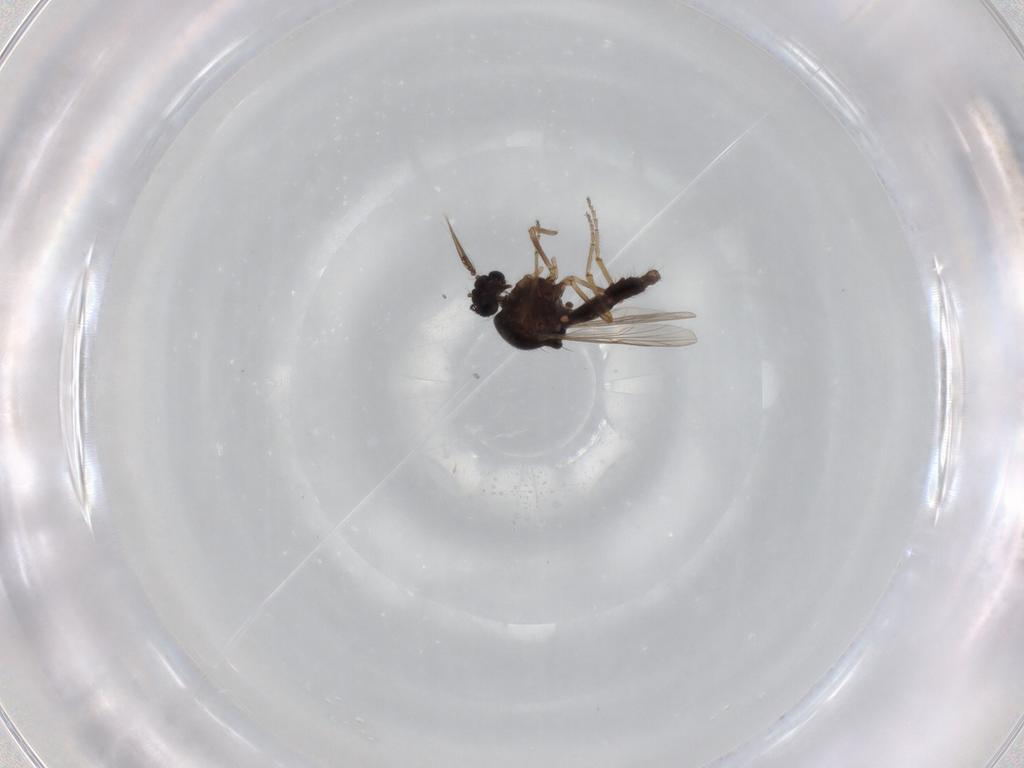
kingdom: Animalia
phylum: Arthropoda
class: Insecta
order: Diptera
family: Ceratopogonidae
